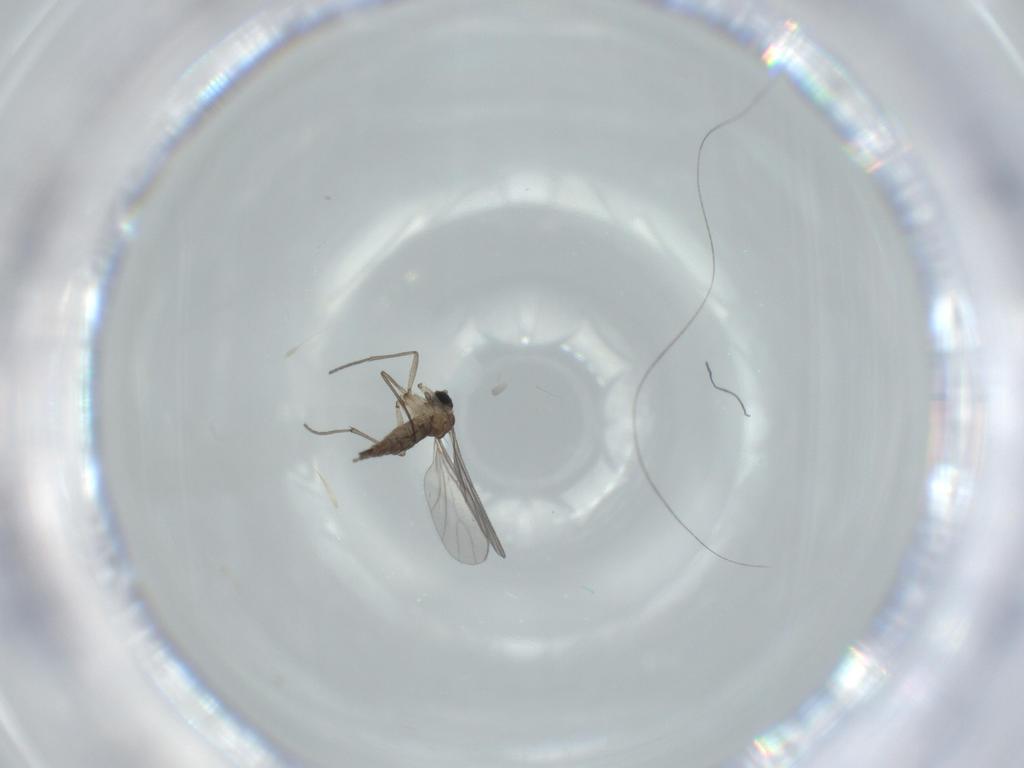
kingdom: Animalia
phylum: Arthropoda
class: Insecta
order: Diptera
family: Sciaridae
